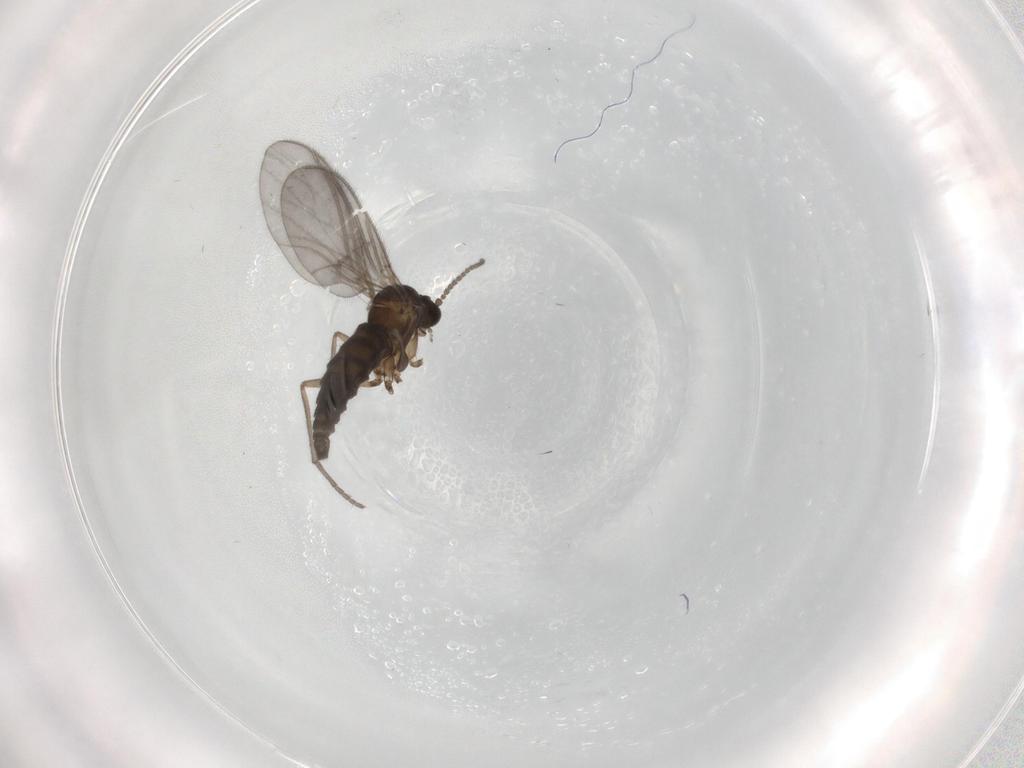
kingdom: Animalia
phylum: Arthropoda
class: Insecta
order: Diptera
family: Sciaridae
